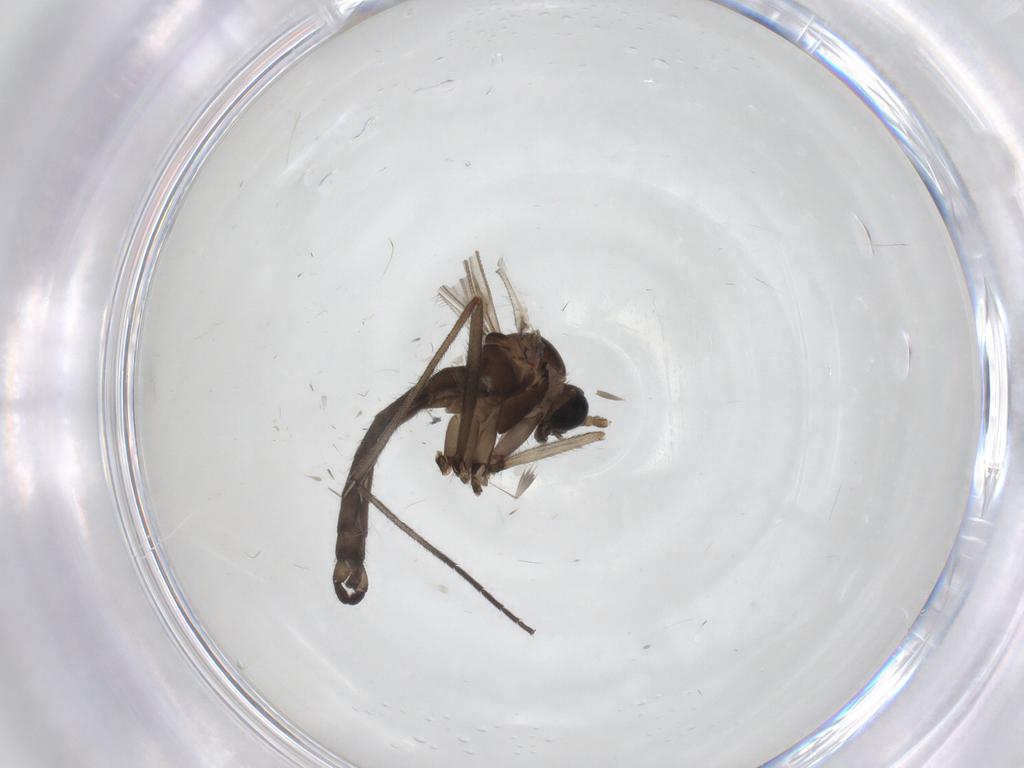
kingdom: Animalia
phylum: Arthropoda
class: Insecta
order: Diptera
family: Sciaridae
